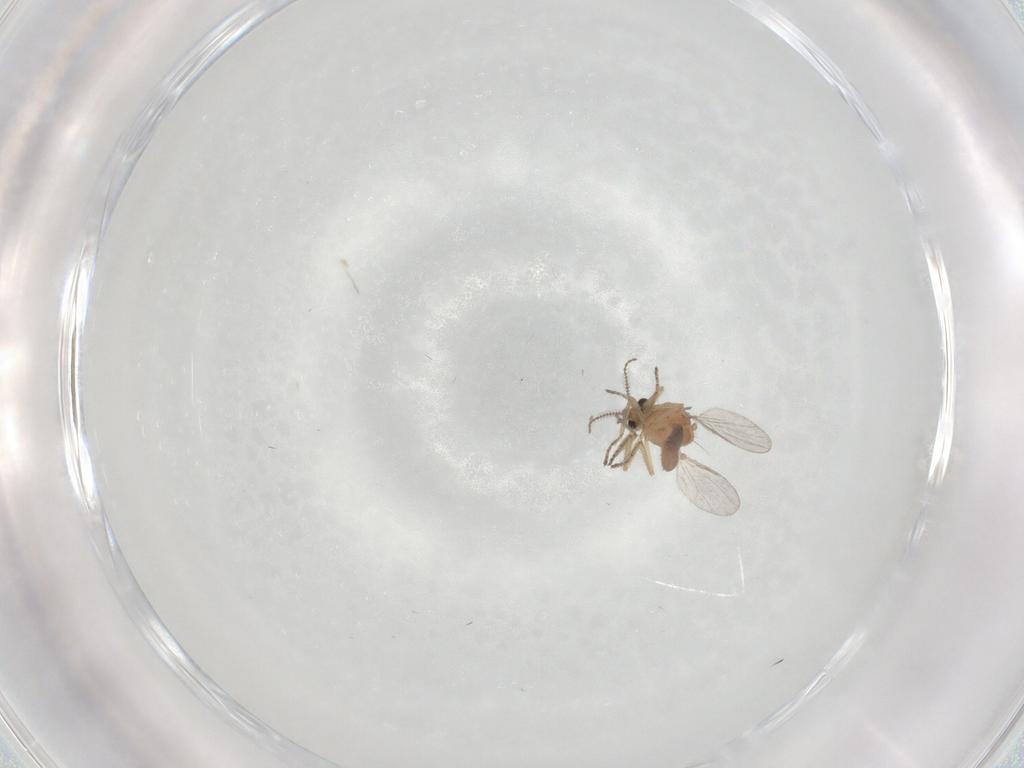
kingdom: Animalia
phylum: Arthropoda
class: Insecta
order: Diptera
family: Ceratopogonidae
